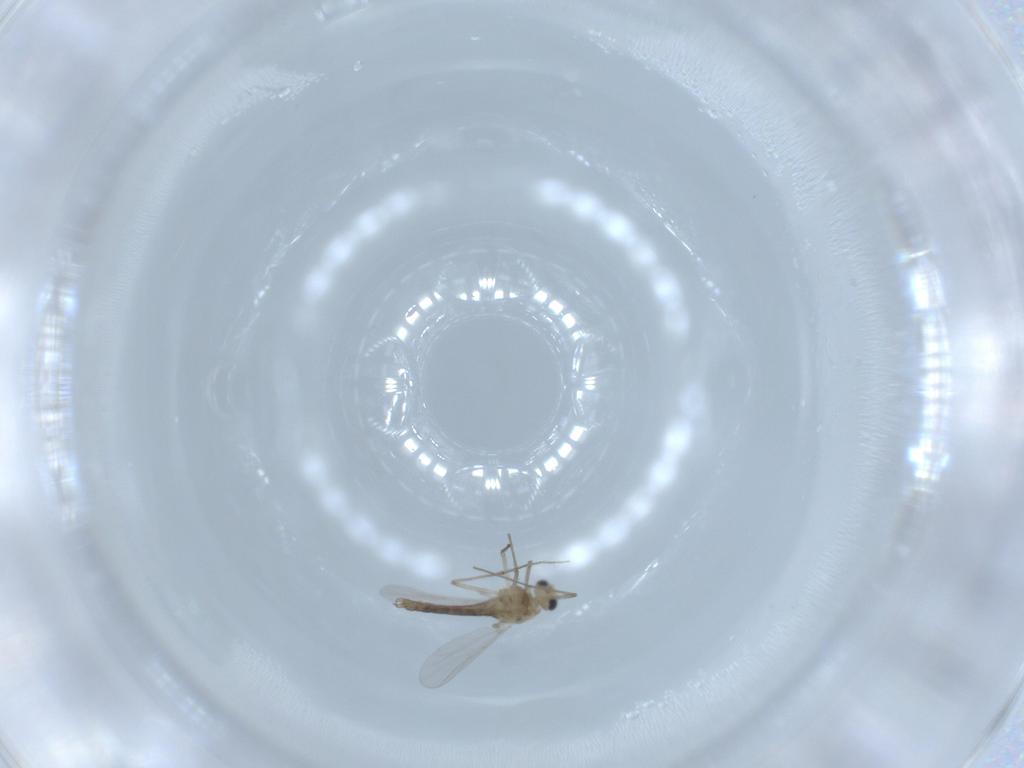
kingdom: Animalia
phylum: Arthropoda
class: Insecta
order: Diptera
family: Chironomidae
